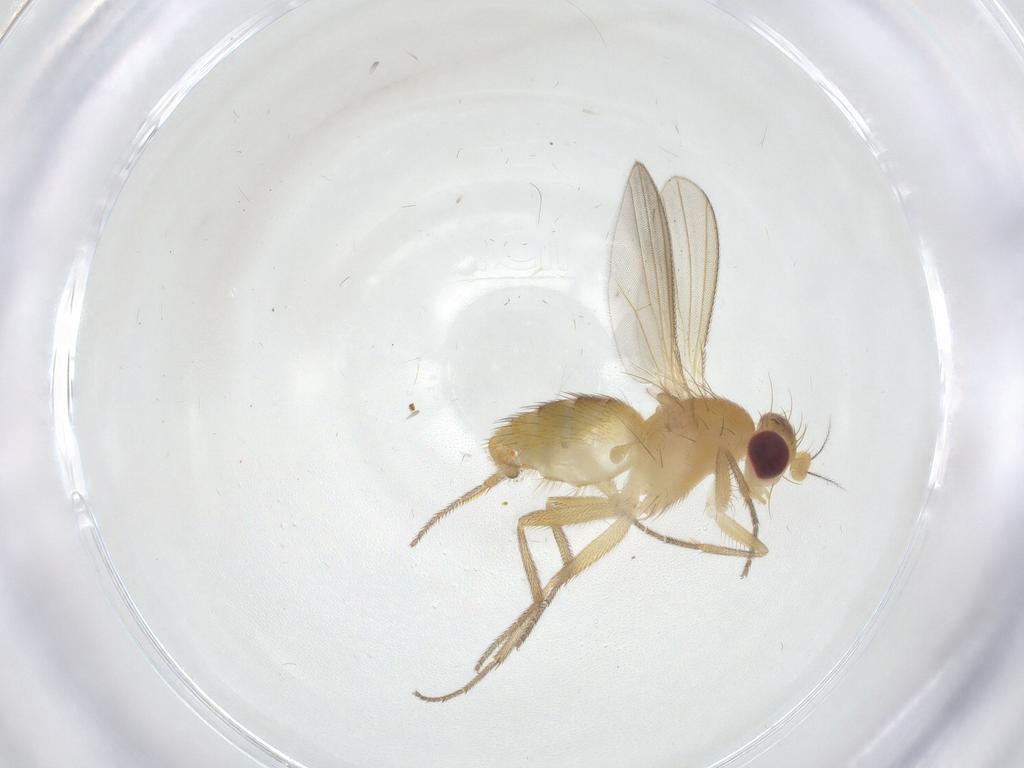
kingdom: Animalia
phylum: Arthropoda
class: Insecta
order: Diptera
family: Clusiidae
